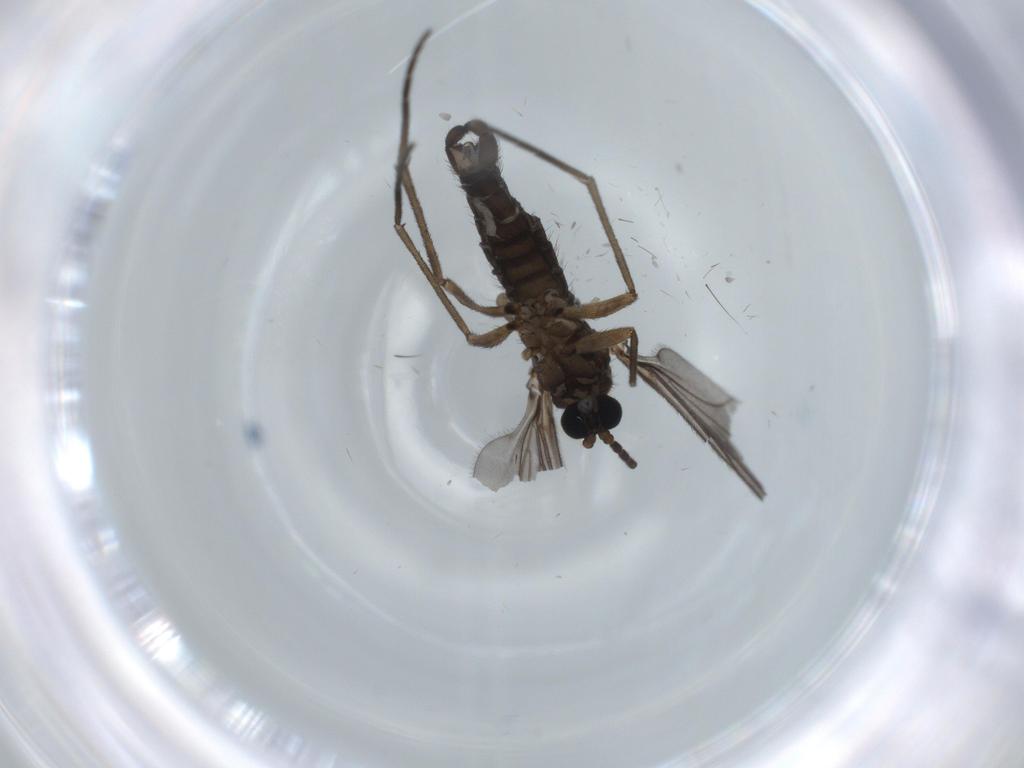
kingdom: Animalia
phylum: Arthropoda
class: Insecta
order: Diptera
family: Sciaridae
